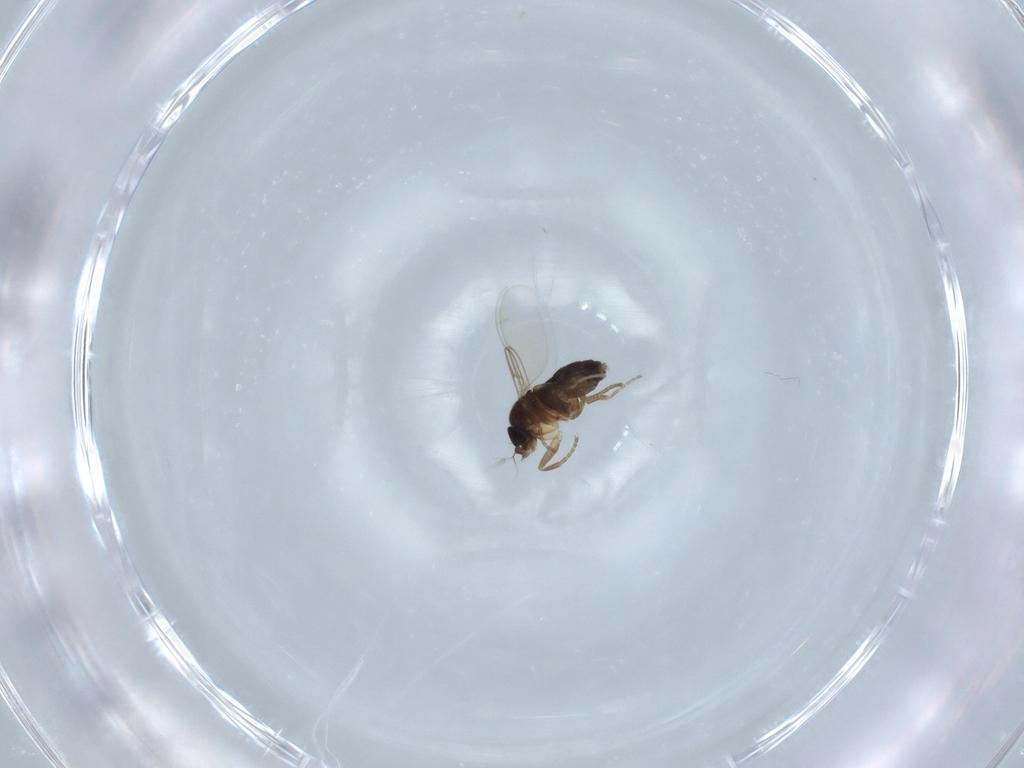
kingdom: Animalia
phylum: Arthropoda
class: Insecta
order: Diptera
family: Phoridae
